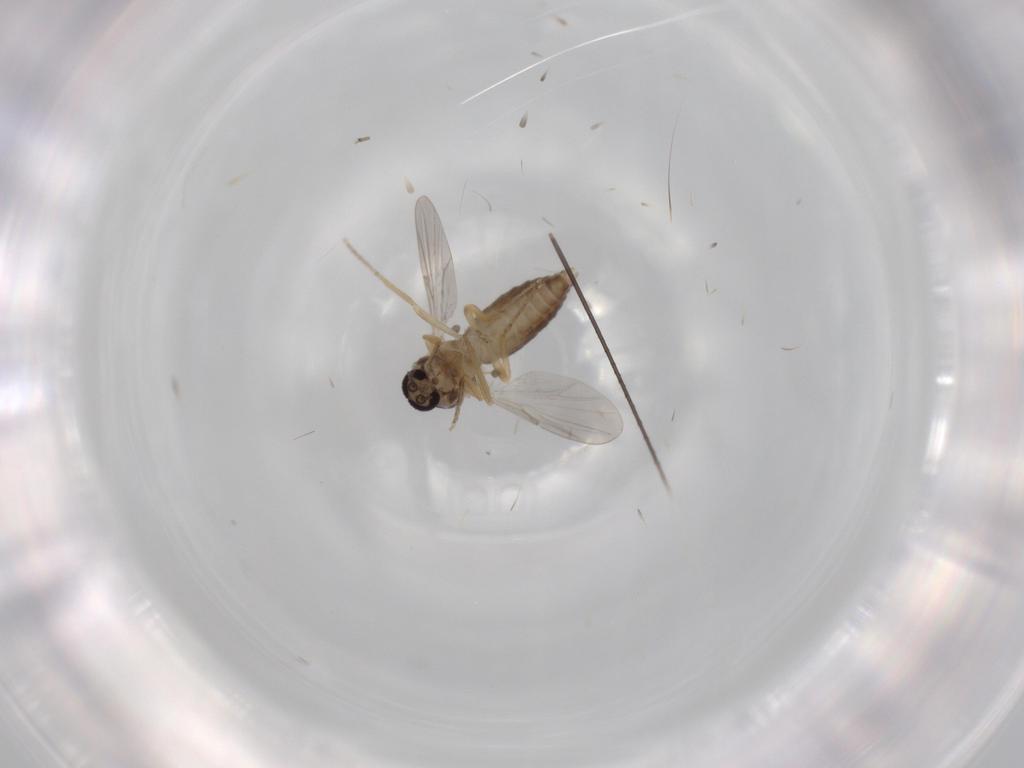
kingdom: Animalia
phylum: Arthropoda
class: Insecta
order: Diptera
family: Ceratopogonidae
